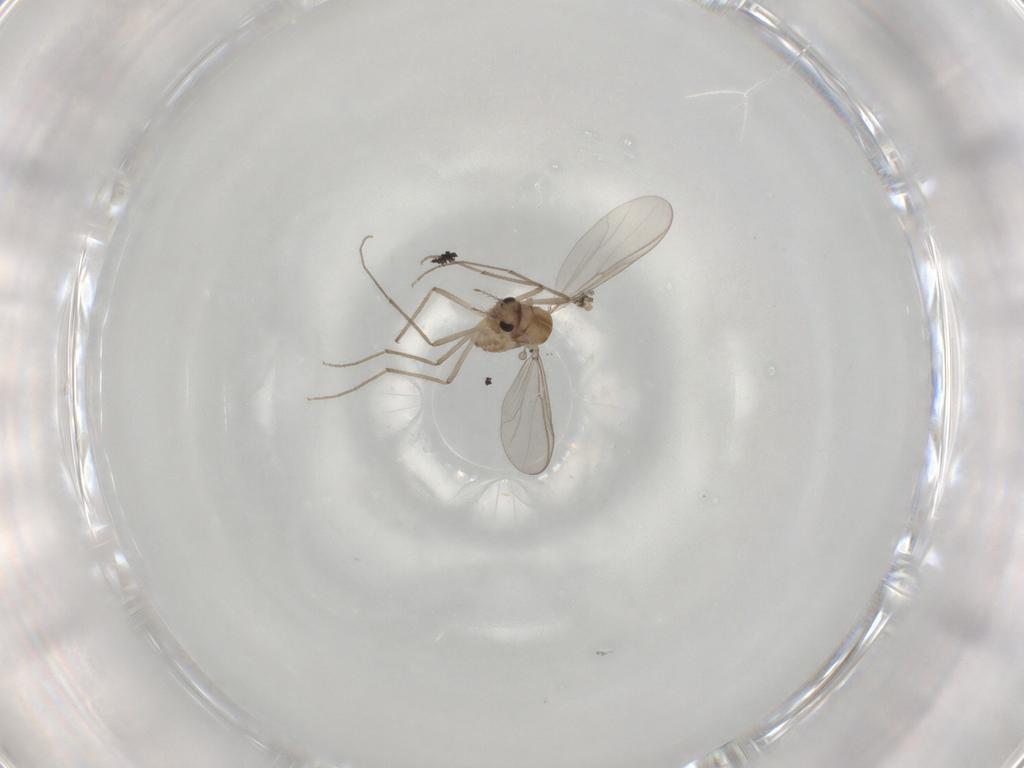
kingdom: Animalia
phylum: Arthropoda
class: Insecta
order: Diptera
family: Chironomidae
